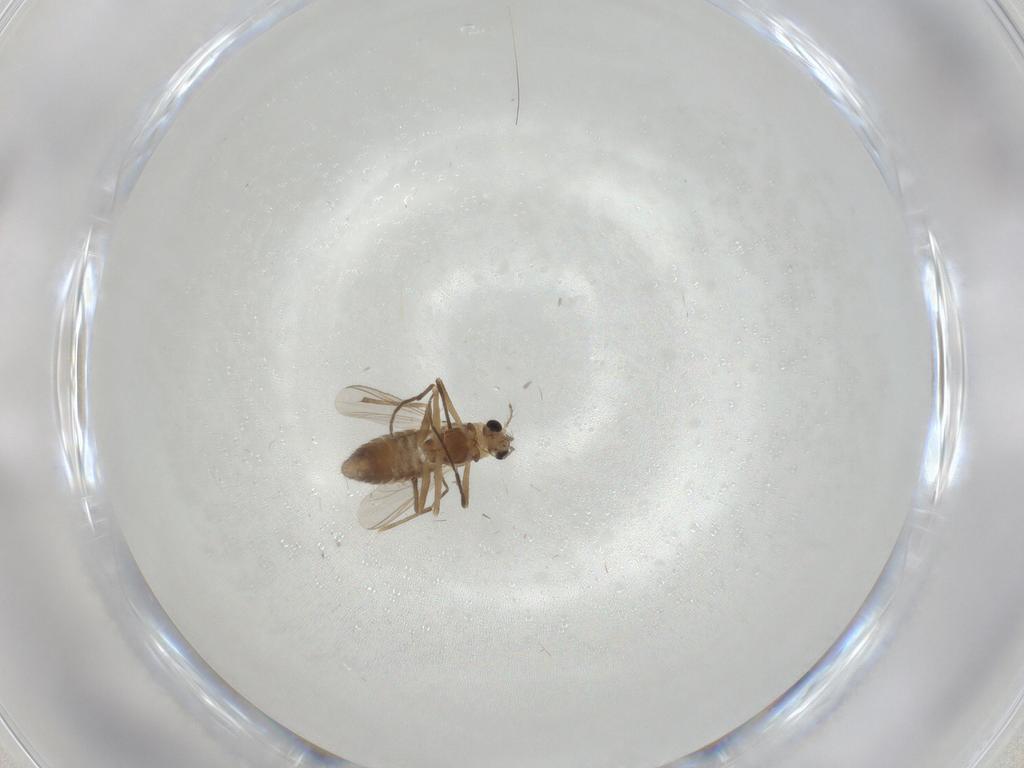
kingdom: Animalia
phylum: Arthropoda
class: Insecta
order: Diptera
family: Chironomidae
